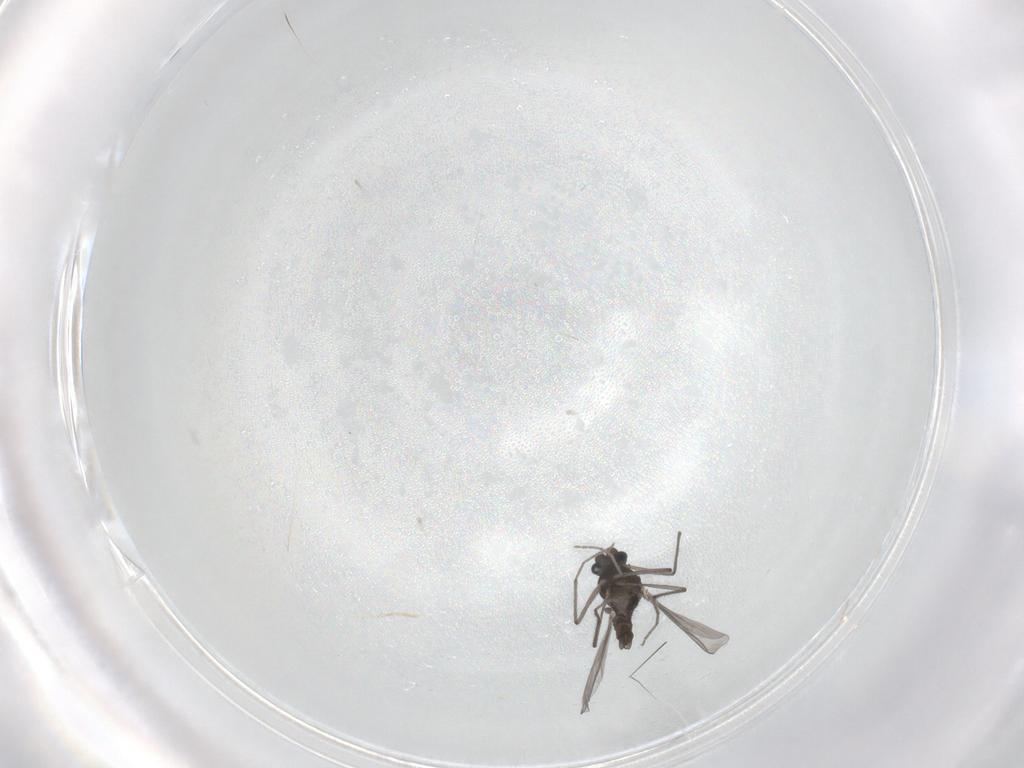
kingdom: Animalia
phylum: Arthropoda
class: Insecta
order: Diptera
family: Chironomidae
